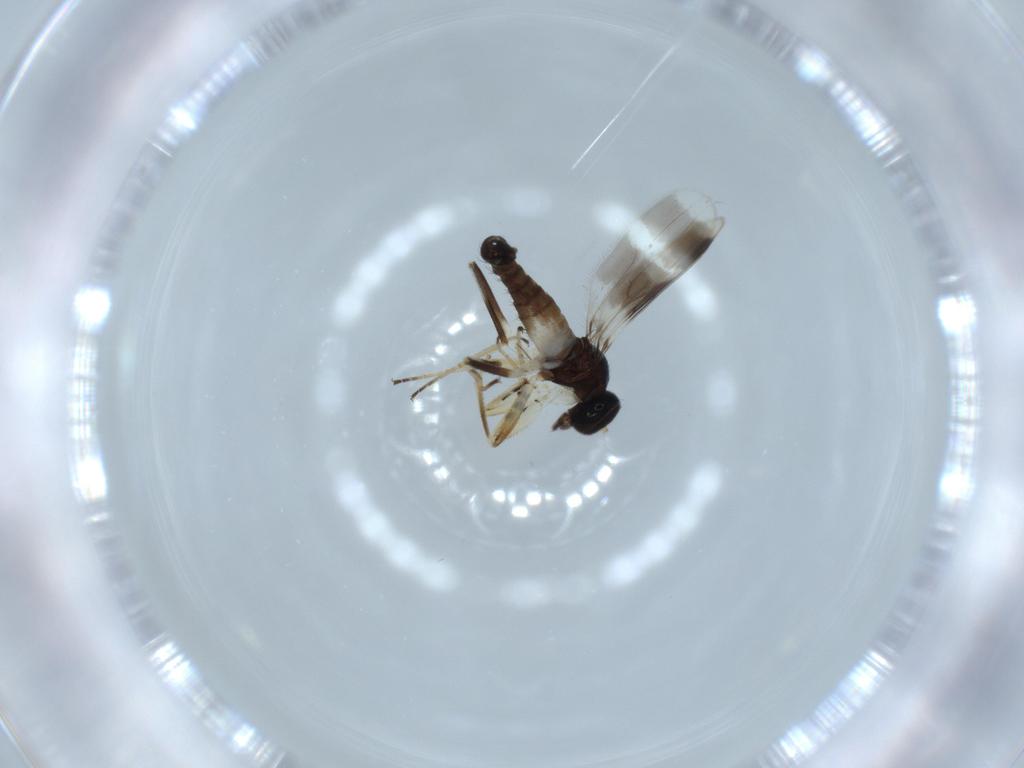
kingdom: Animalia
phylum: Arthropoda
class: Insecta
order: Diptera
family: Hybotidae
